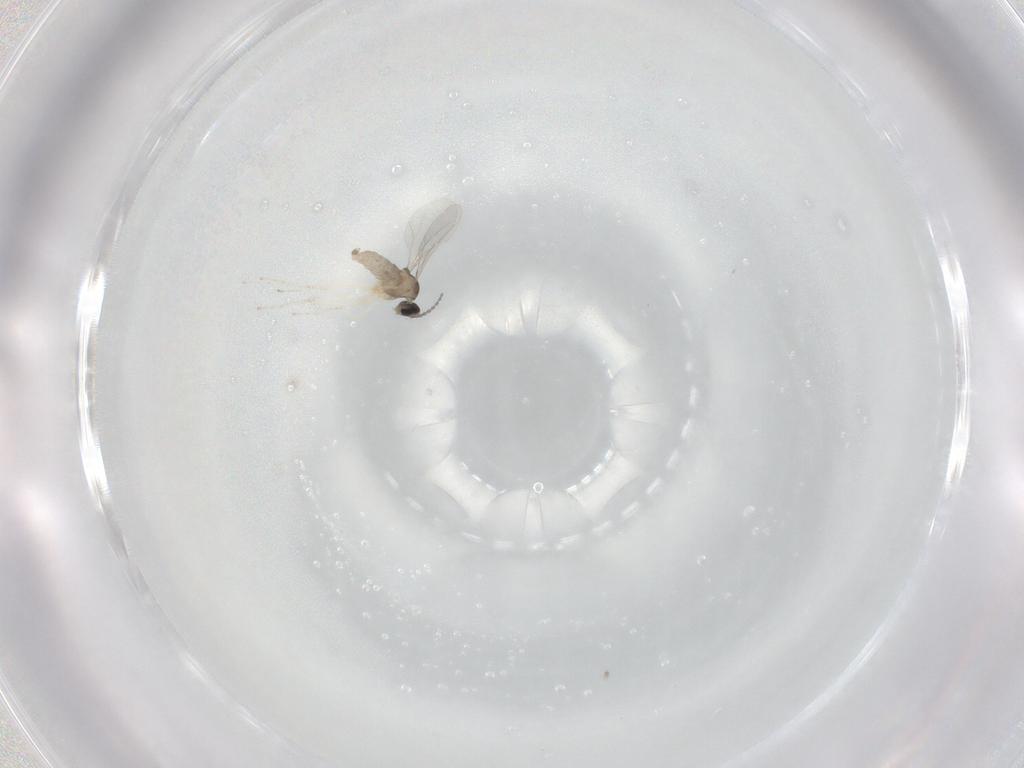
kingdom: Animalia
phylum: Arthropoda
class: Insecta
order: Diptera
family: Cecidomyiidae
